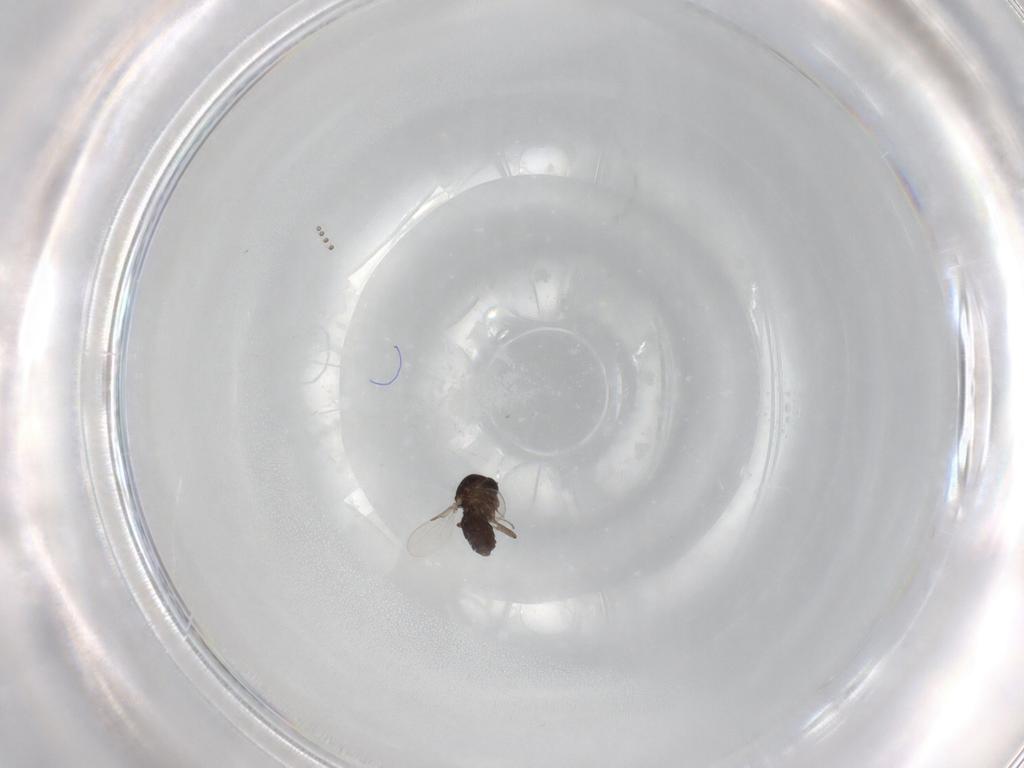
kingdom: Animalia
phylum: Arthropoda
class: Insecta
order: Diptera
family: Ceratopogonidae
